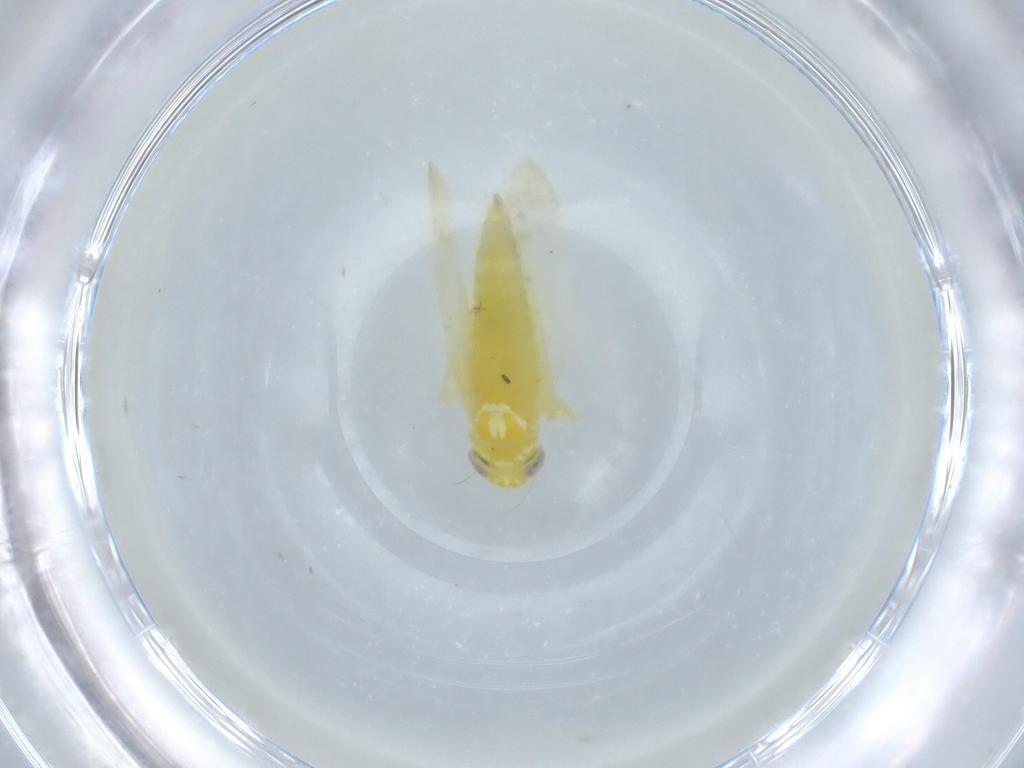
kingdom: Animalia
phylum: Arthropoda
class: Insecta
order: Hemiptera
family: Cicadellidae
